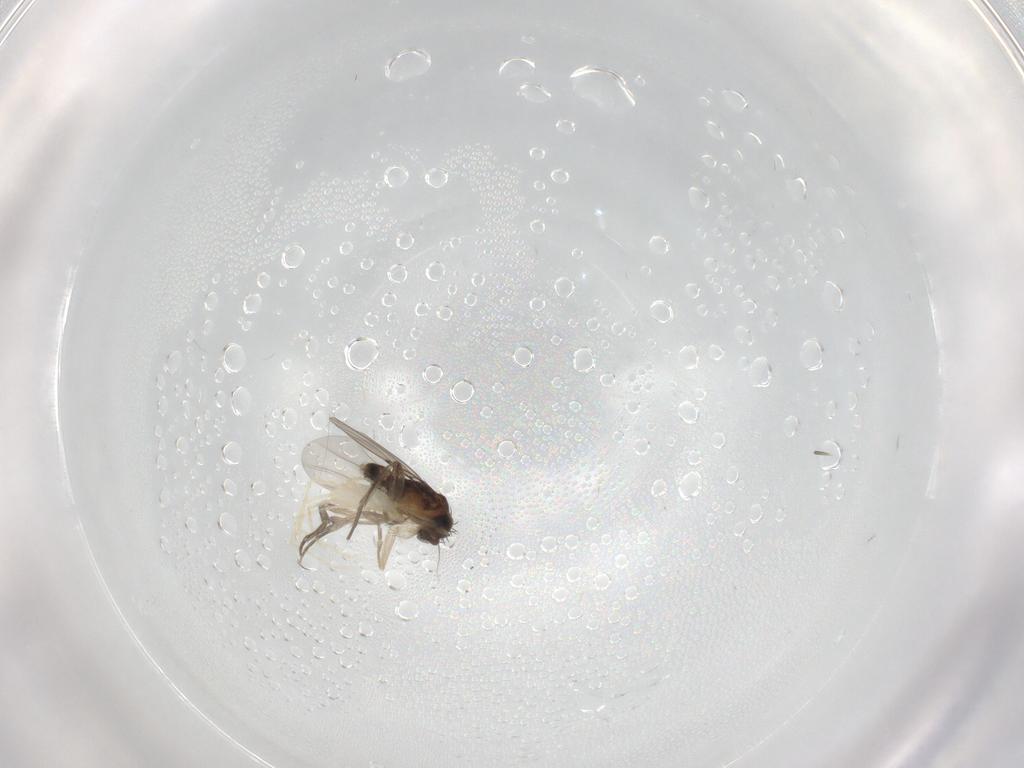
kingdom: Animalia
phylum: Arthropoda
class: Insecta
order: Diptera
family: Phoridae
